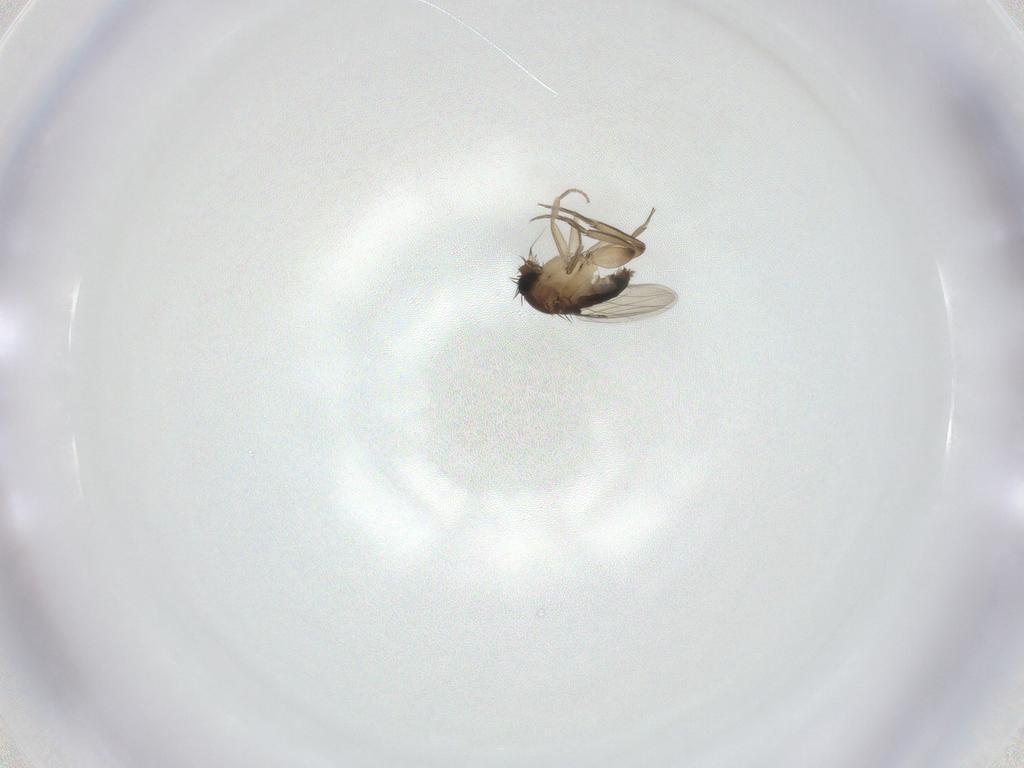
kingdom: Animalia
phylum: Arthropoda
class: Insecta
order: Diptera
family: Phoridae
